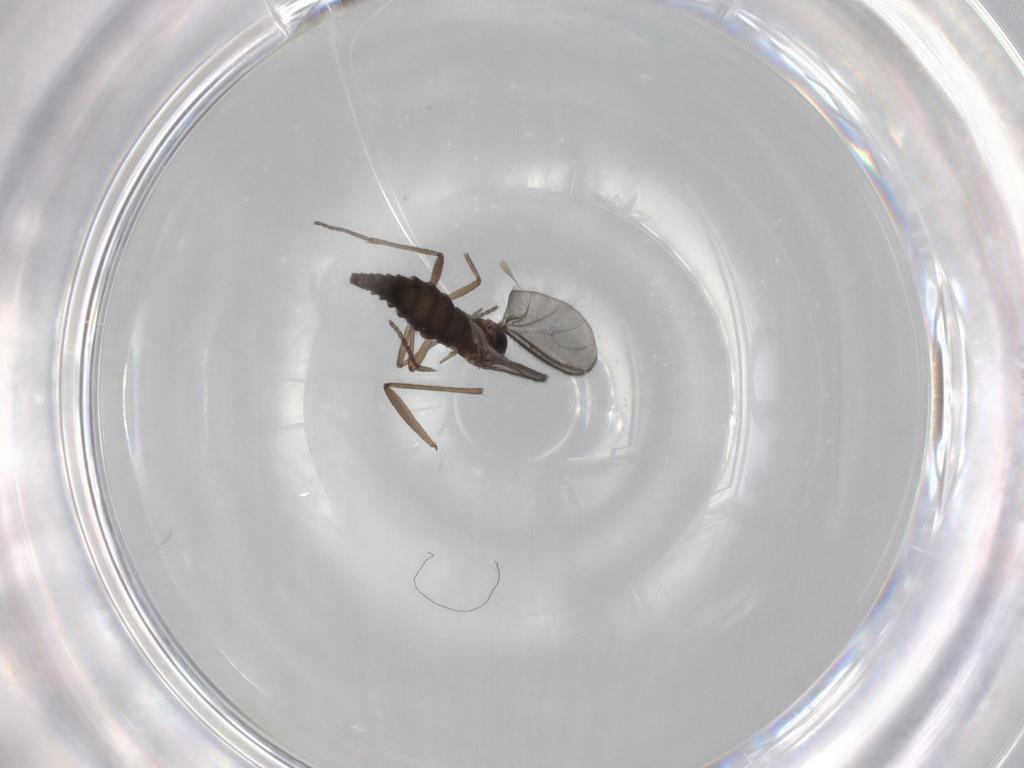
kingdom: Animalia
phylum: Arthropoda
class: Insecta
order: Diptera
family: Sciaridae
